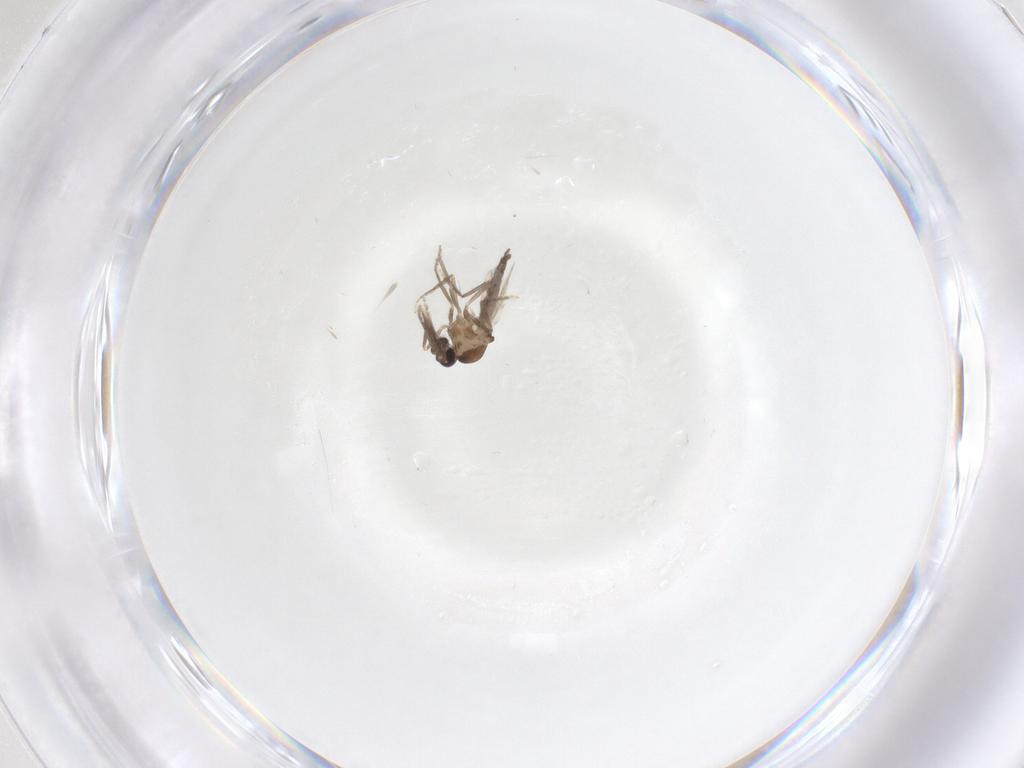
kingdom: Animalia
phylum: Arthropoda
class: Insecta
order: Diptera
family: Ceratopogonidae
